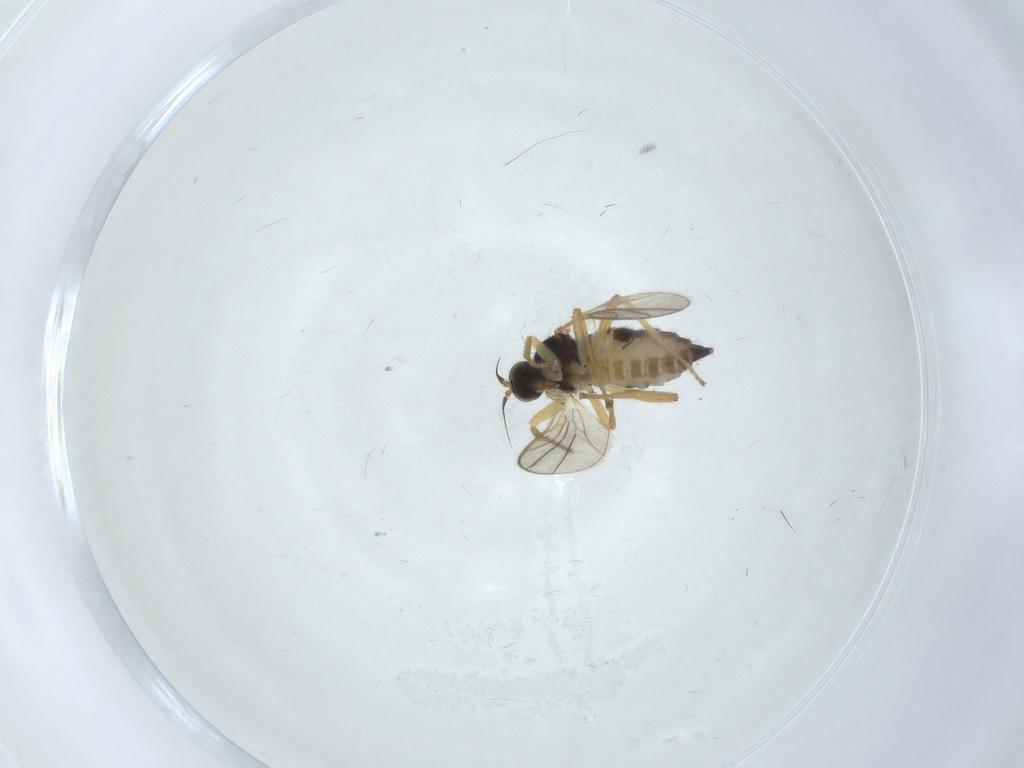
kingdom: Animalia
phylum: Arthropoda
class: Insecta
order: Diptera
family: Hybotidae
